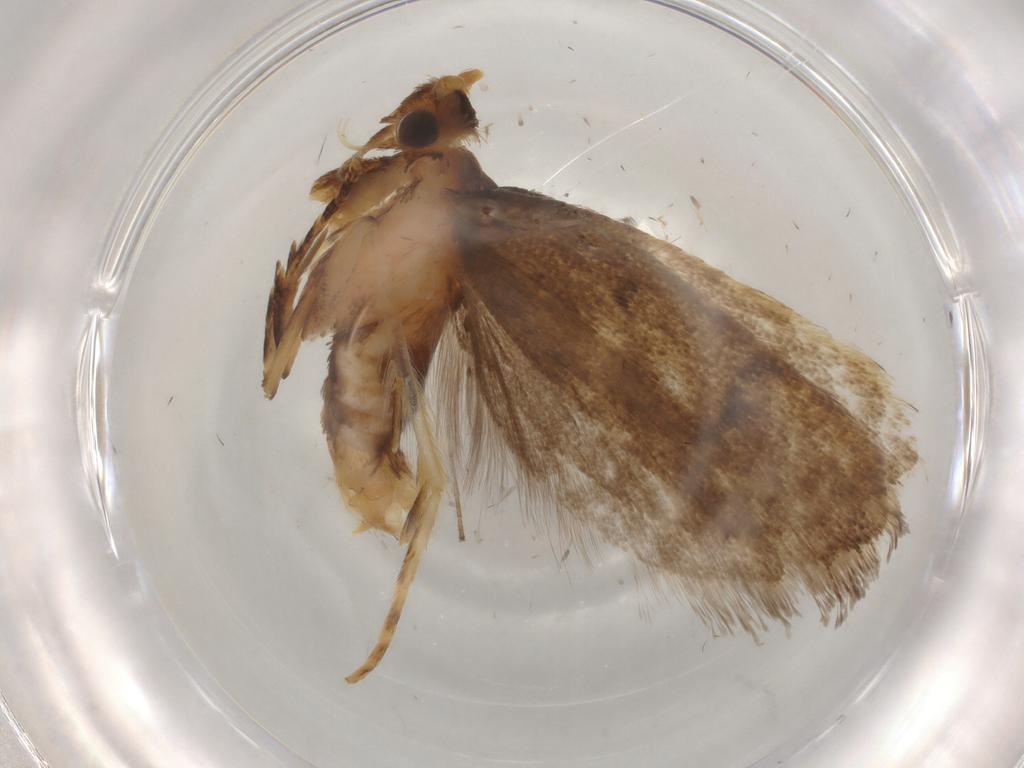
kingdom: Animalia
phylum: Arthropoda
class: Insecta
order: Lepidoptera
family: Lecithoceridae
